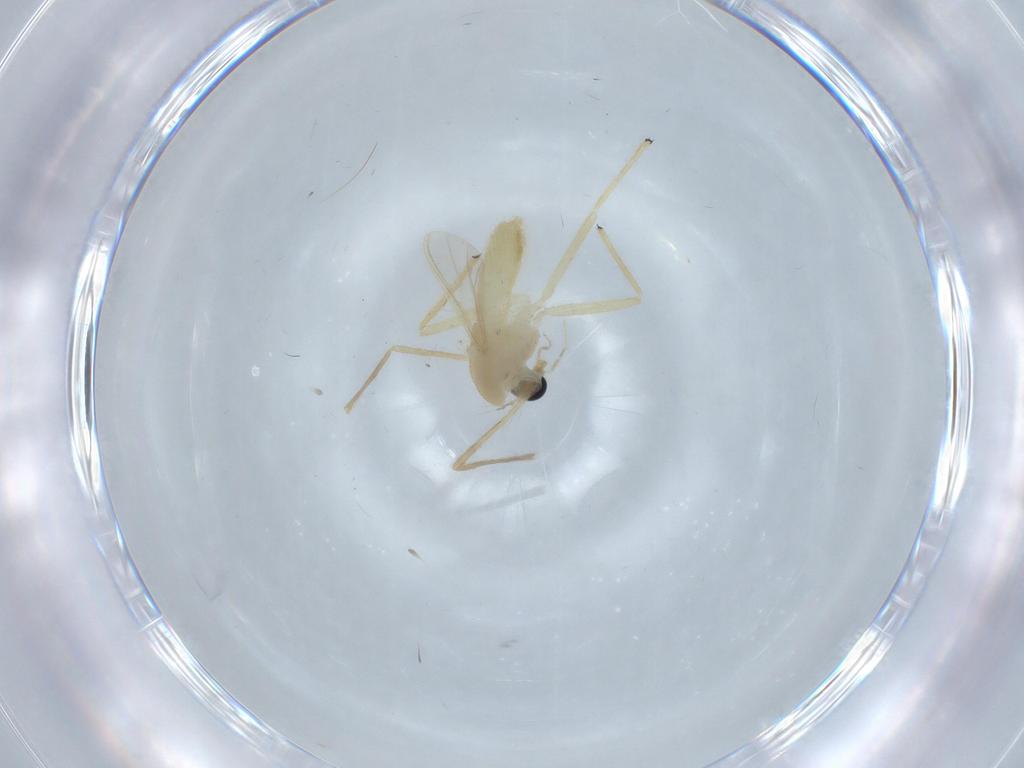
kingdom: Animalia
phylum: Arthropoda
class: Insecta
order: Diptera
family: Chironomidae
